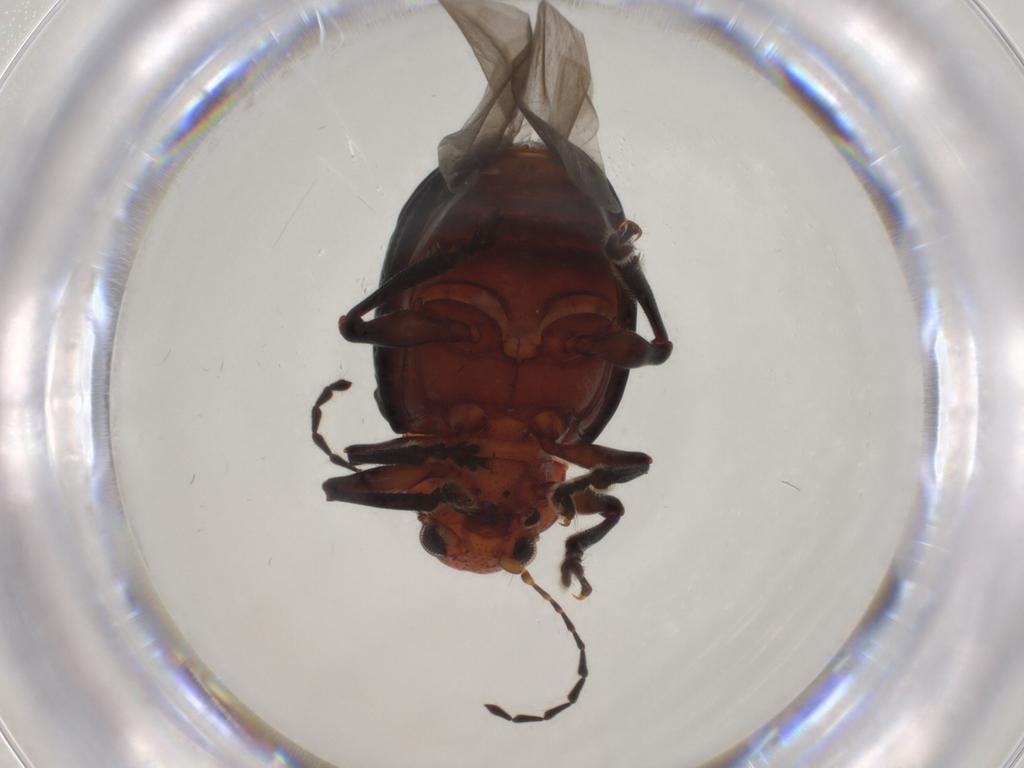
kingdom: Animalia
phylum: Arthropoda
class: Insecta
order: Coleoptera
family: Chrysomelidae
